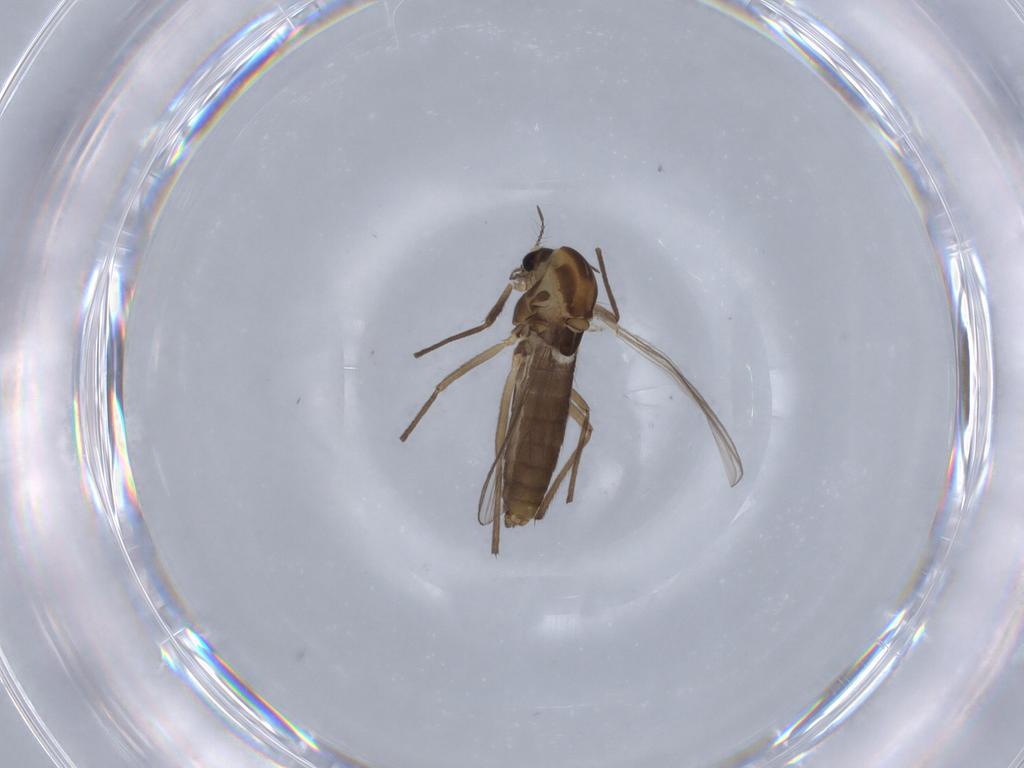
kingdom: Animalia
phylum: Arthropoda
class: Insecta
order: Diptera
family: Chironomidae
